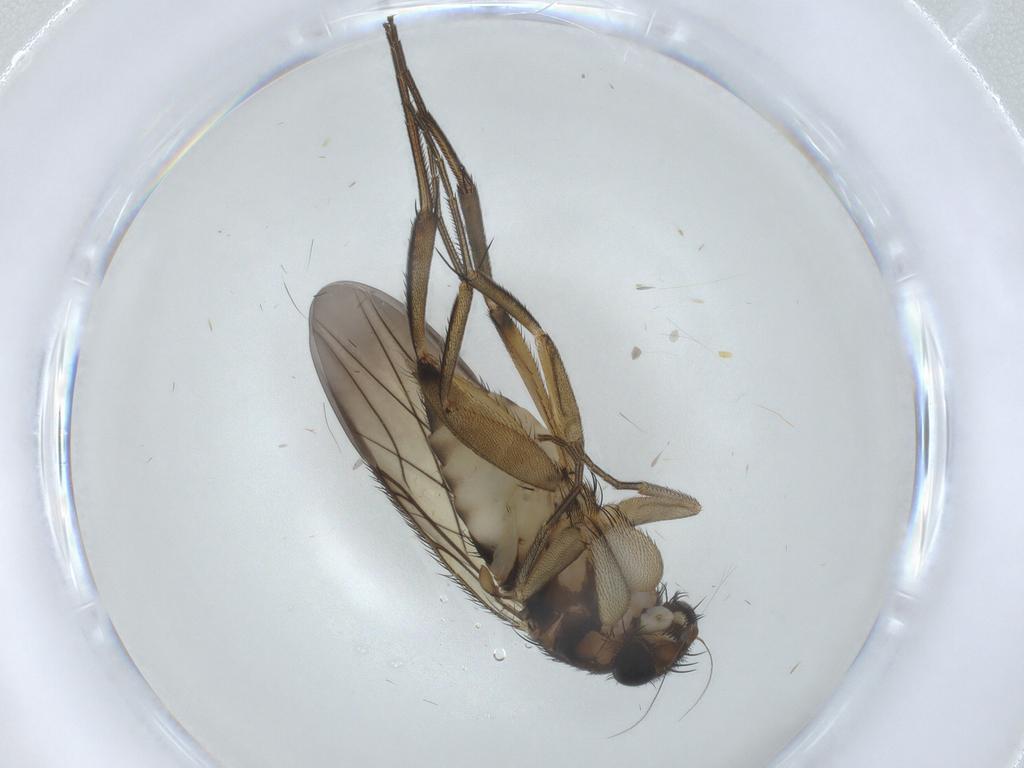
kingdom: Animalia
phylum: Arthropoda
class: Insecta
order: Diptera
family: Phoridae
